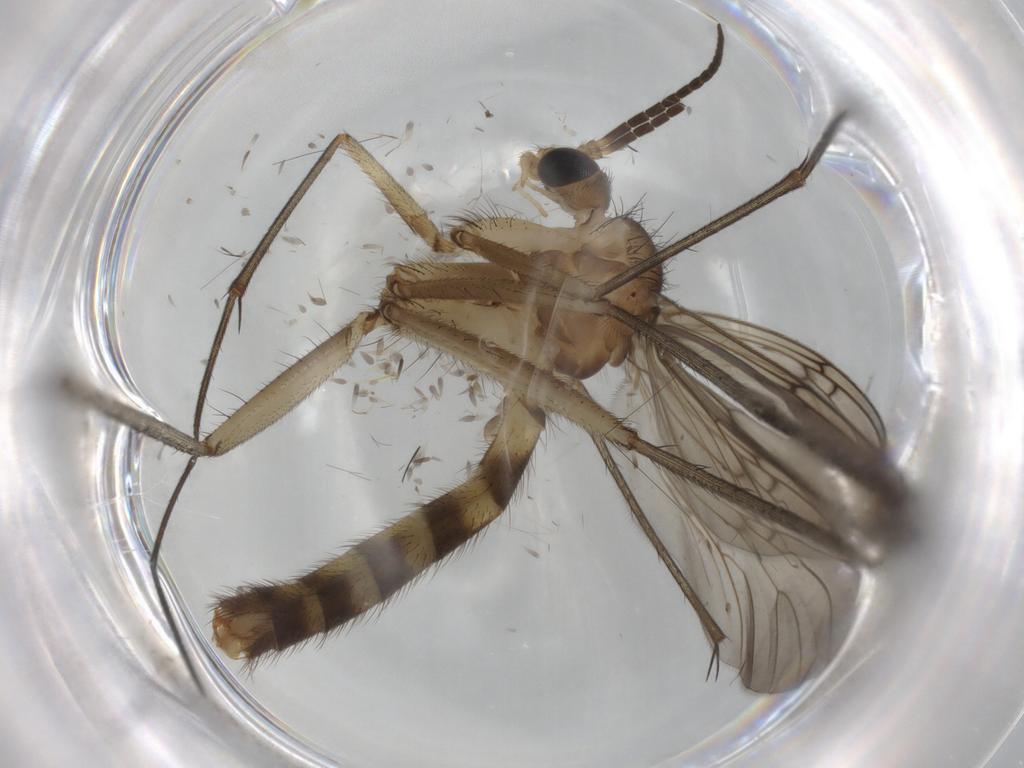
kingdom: Animalia
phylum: Arthropoda
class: Insecta
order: Diptera
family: Mycetophilidae
